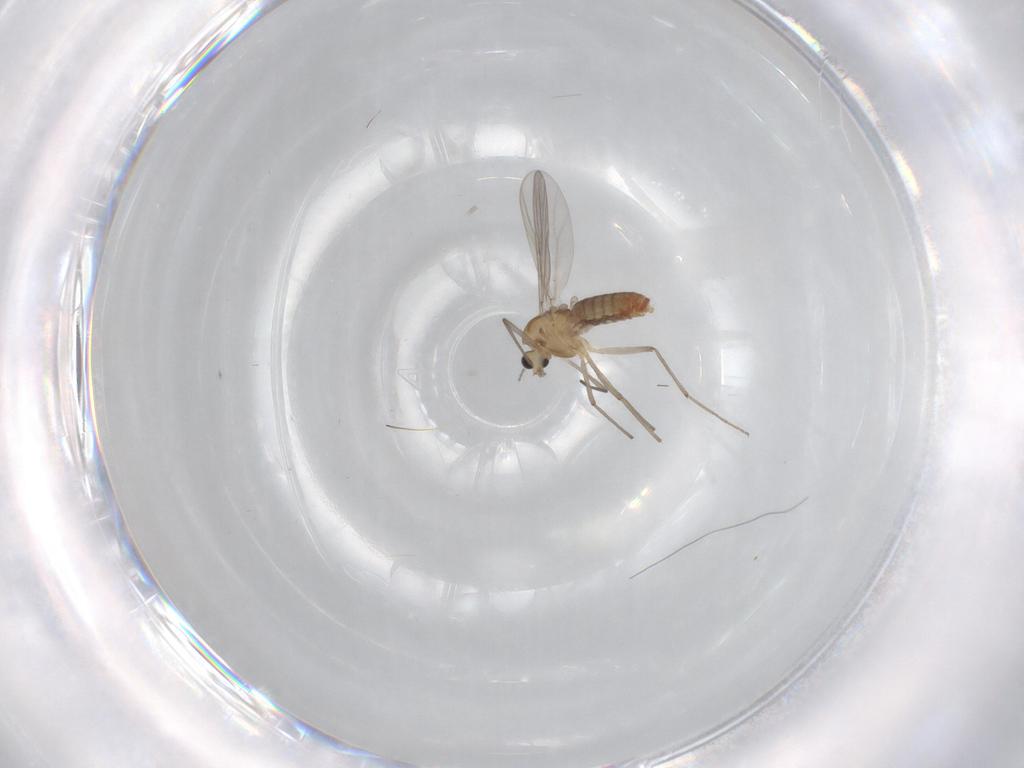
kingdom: Animalia
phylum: Arthropoda
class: Insecta
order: Diptera
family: Chironomidae
